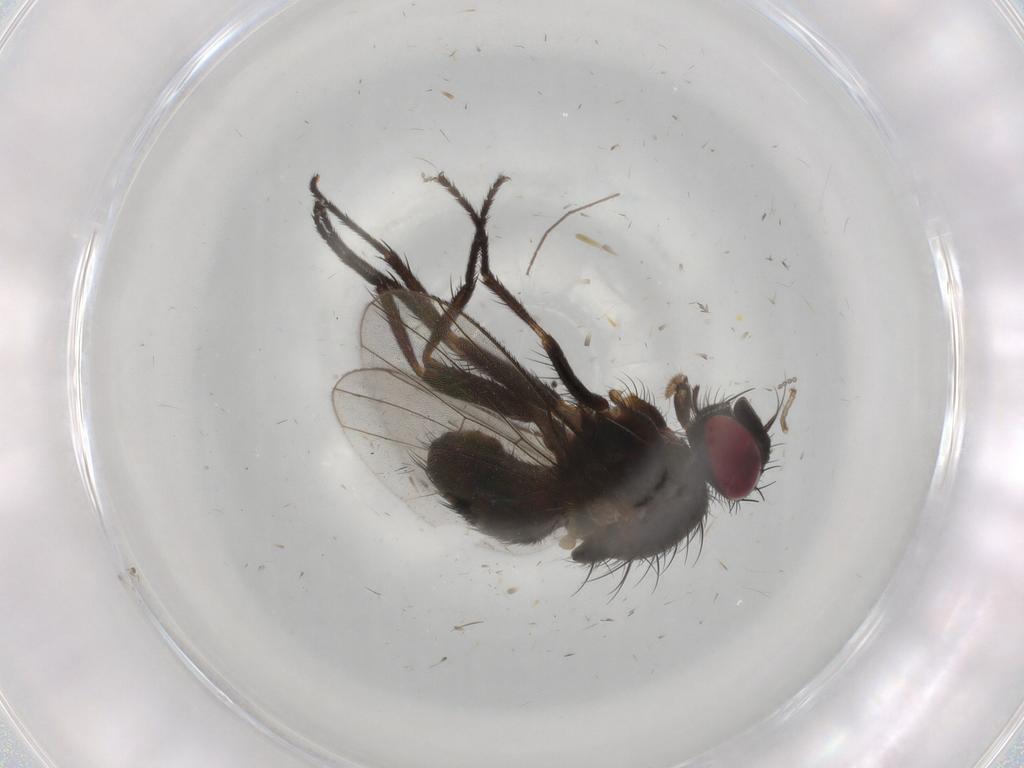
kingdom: Animalia
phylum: Arthropoda
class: Insecta
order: Diptera
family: Muscidae
